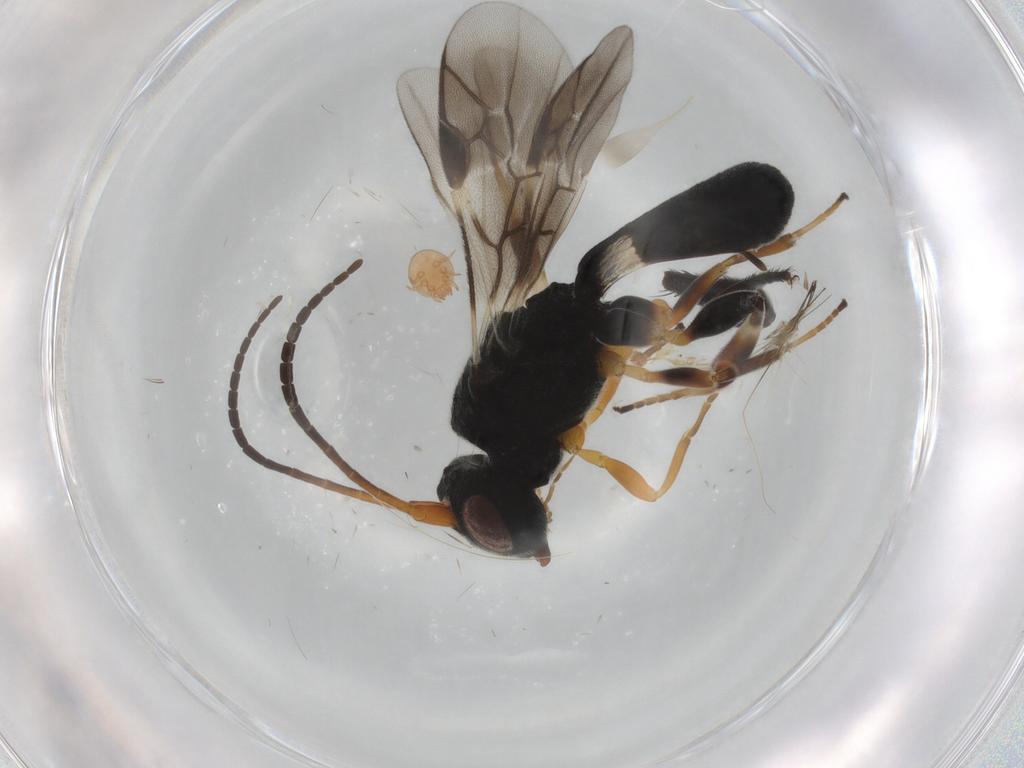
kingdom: Animalia
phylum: Arthropoda
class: Insecta
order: Hymenoptera
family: Braconidae
